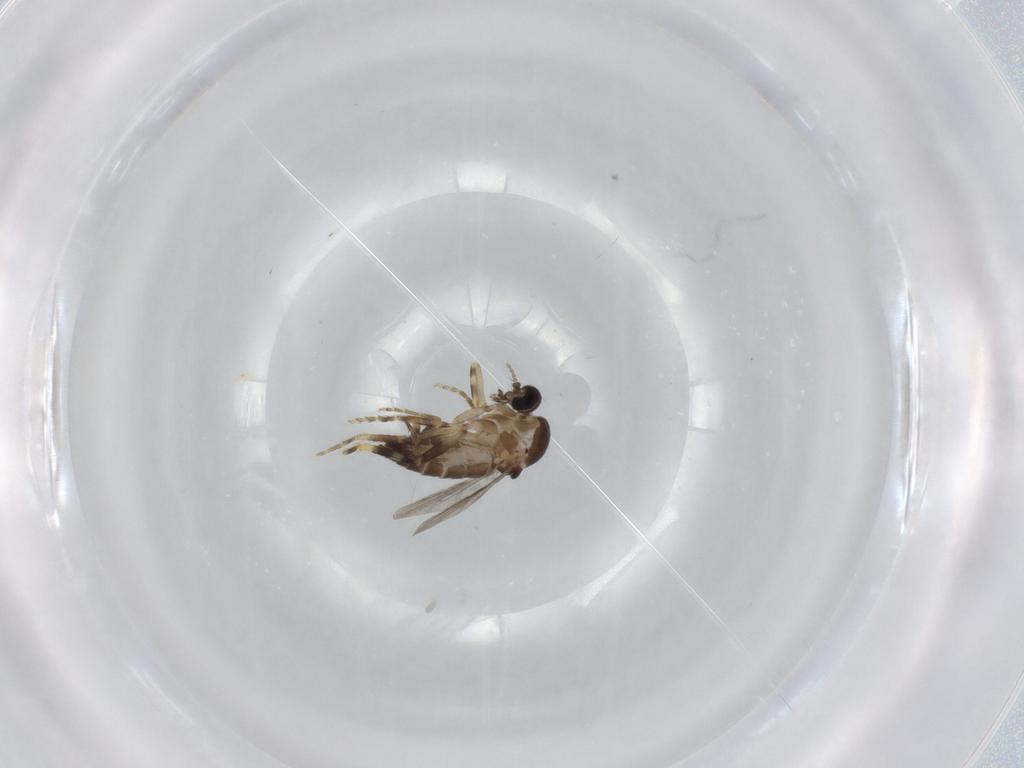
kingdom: Animalia
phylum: Arthropoda
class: Insecta
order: Diptera
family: Ceratopogonidae
